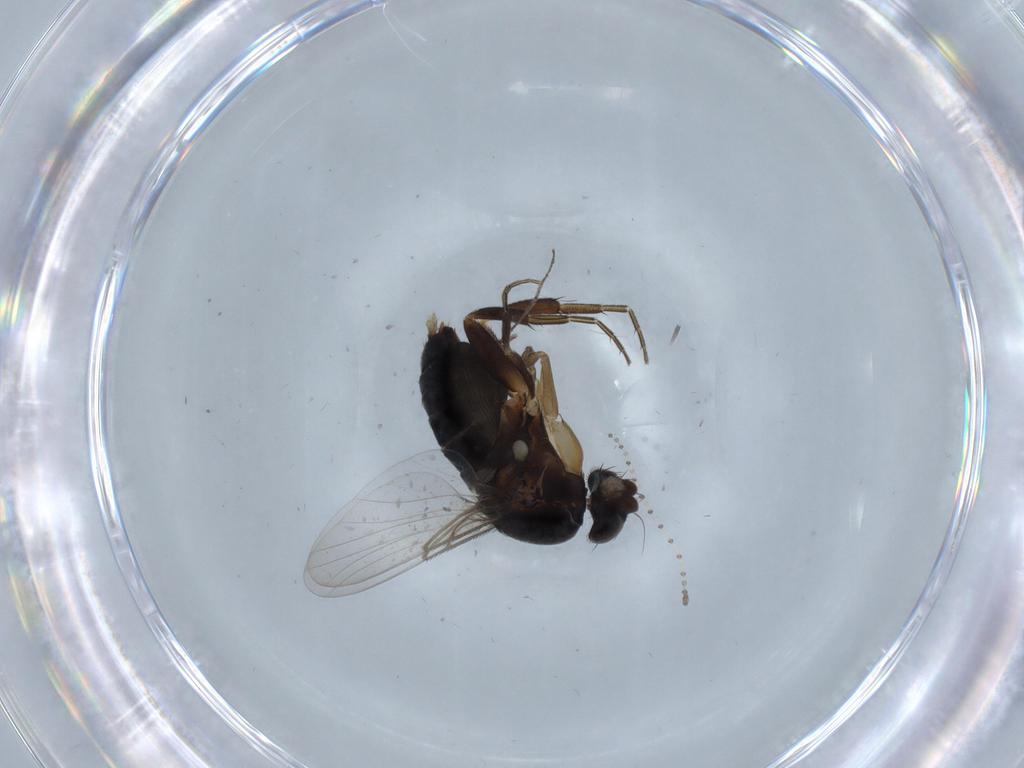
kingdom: Animalia
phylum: Arthropoda
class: Insecta
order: Diptera
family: Phoridae
